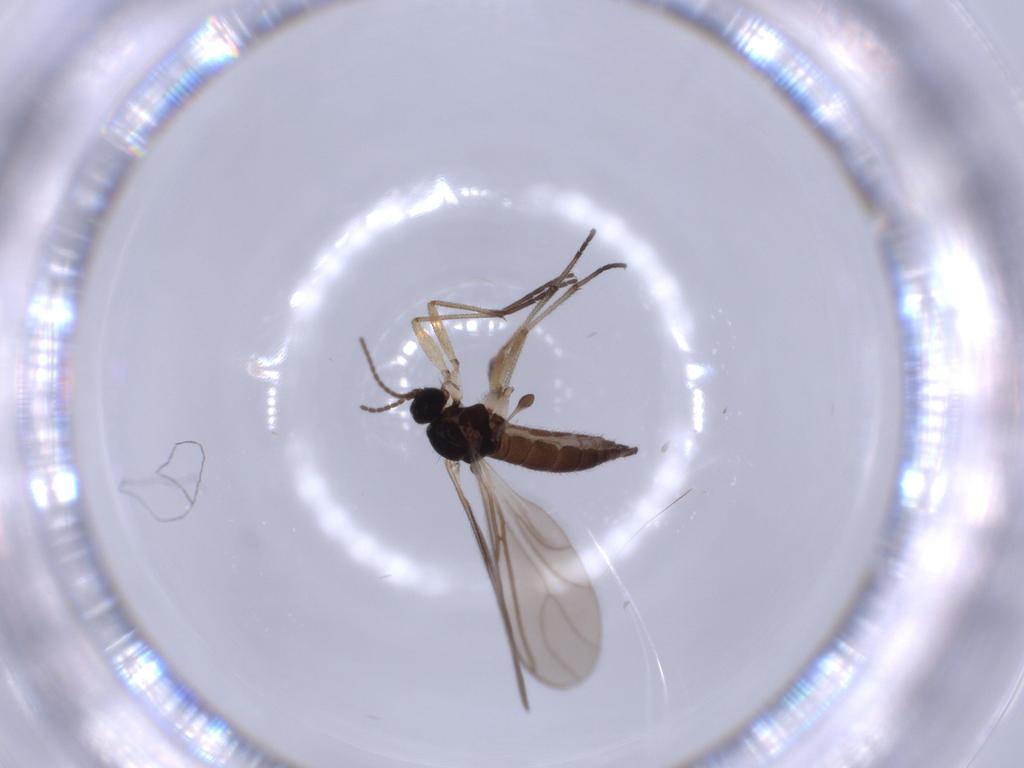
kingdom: Animalia
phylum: Arthropoda
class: Insecta
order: Diptera
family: Sciaridae
